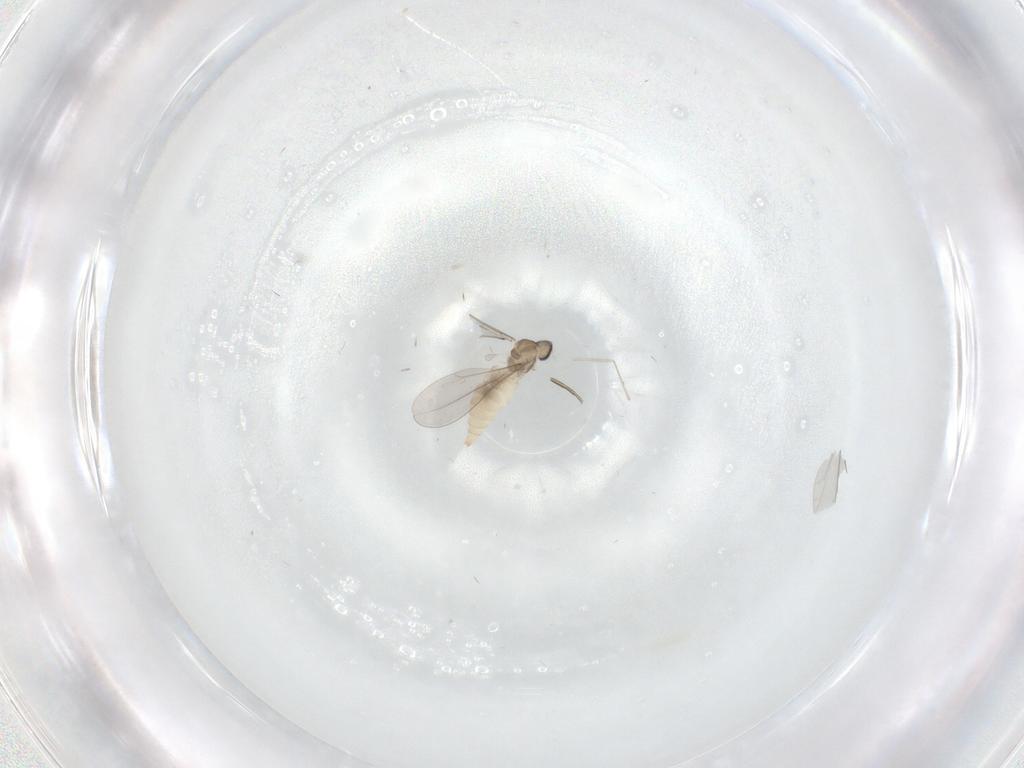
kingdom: Animalia
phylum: Arthropoda
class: Insecta
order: Diptera
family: Cecidomyiidae
